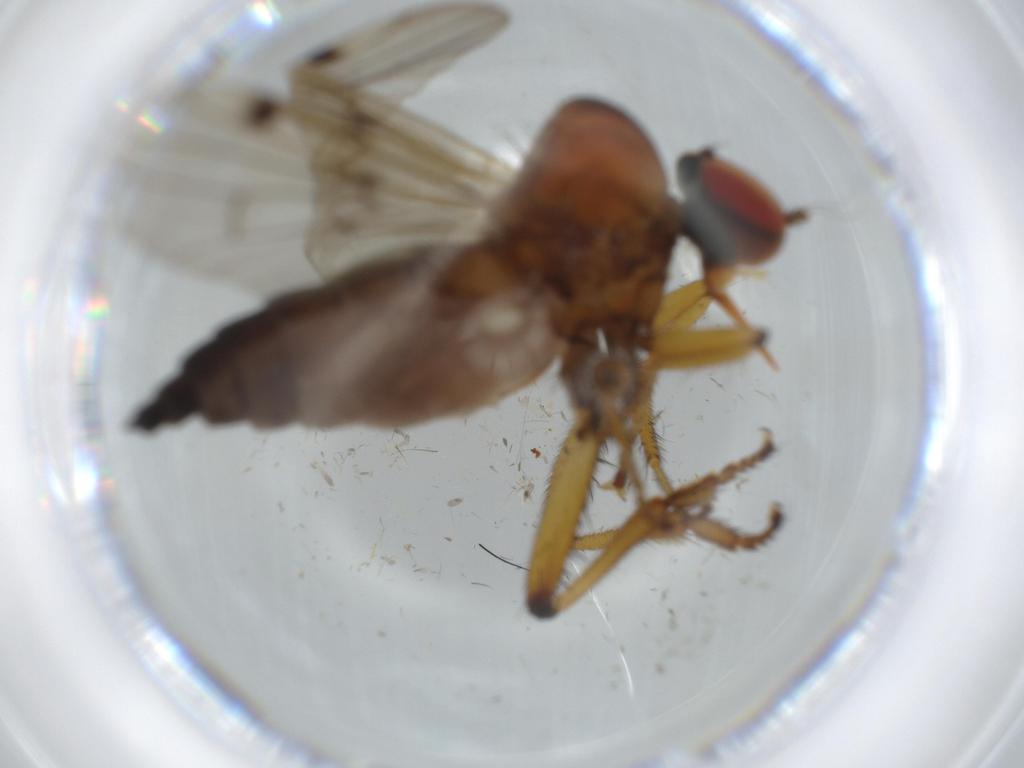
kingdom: Animalia
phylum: Arthropoda
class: Insecta
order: Diptera
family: Hybotidae
